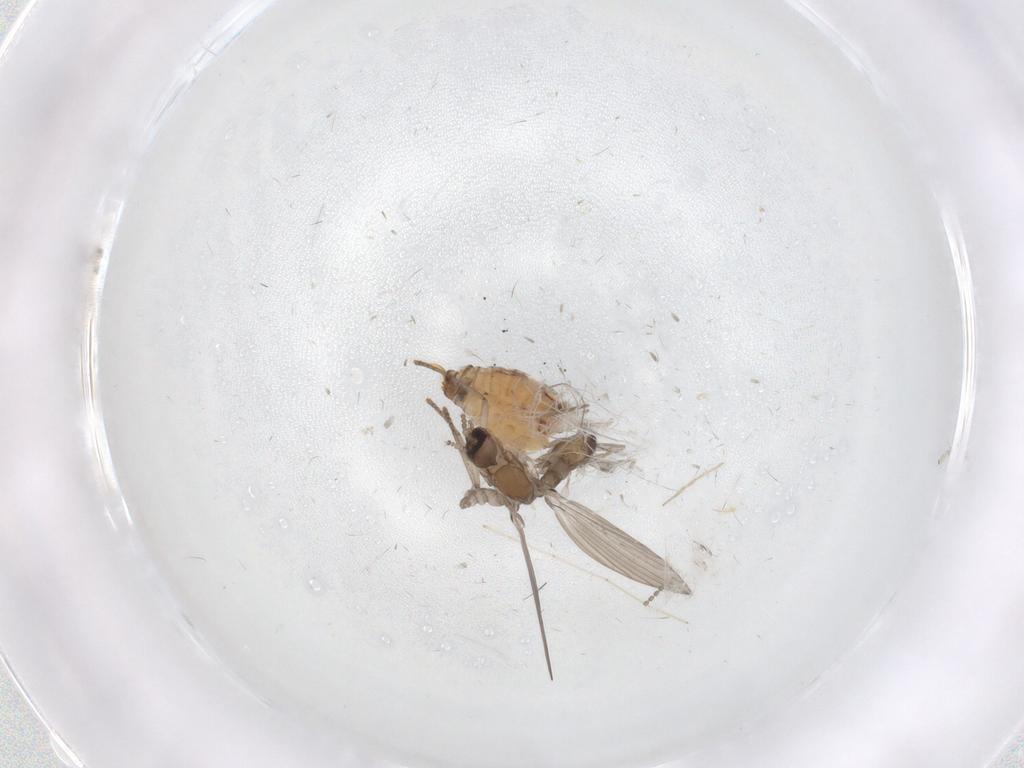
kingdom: Animalia
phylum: Arthropoda
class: Insecta
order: Diptera
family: Cecidomyiidae
